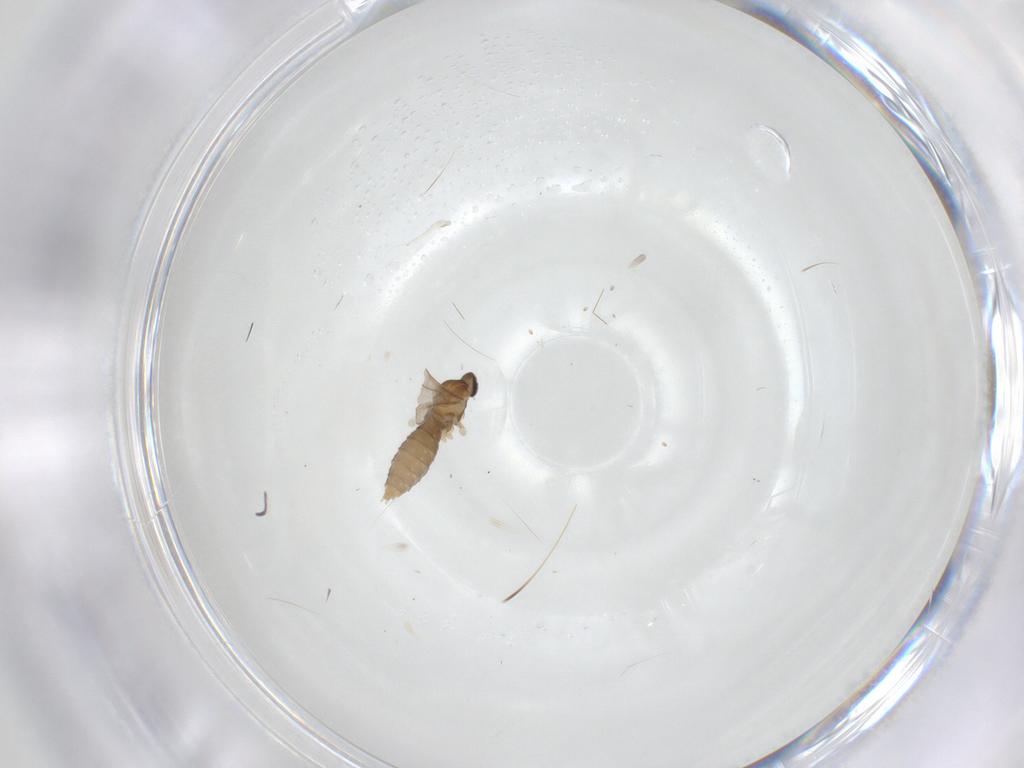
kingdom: Animalia
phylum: Arthropoda
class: Insecta
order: Diptera
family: Cecidomyiidae
